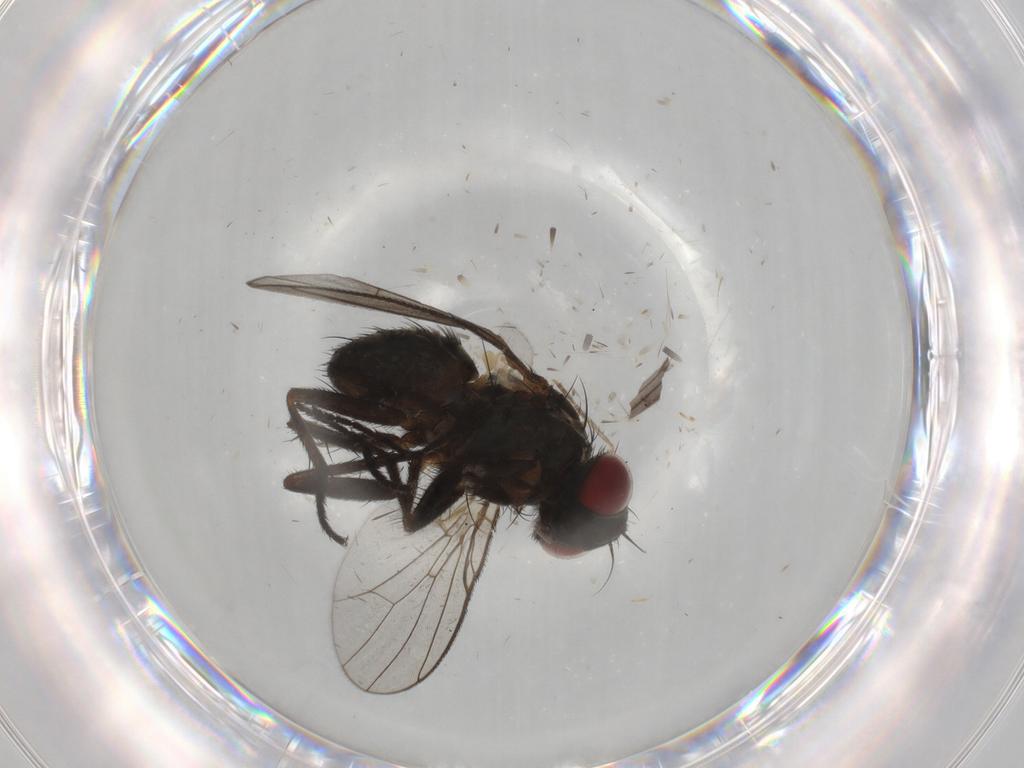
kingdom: Animalia
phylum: Arthropoda
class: Insecta
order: Diptera
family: Muscidae
